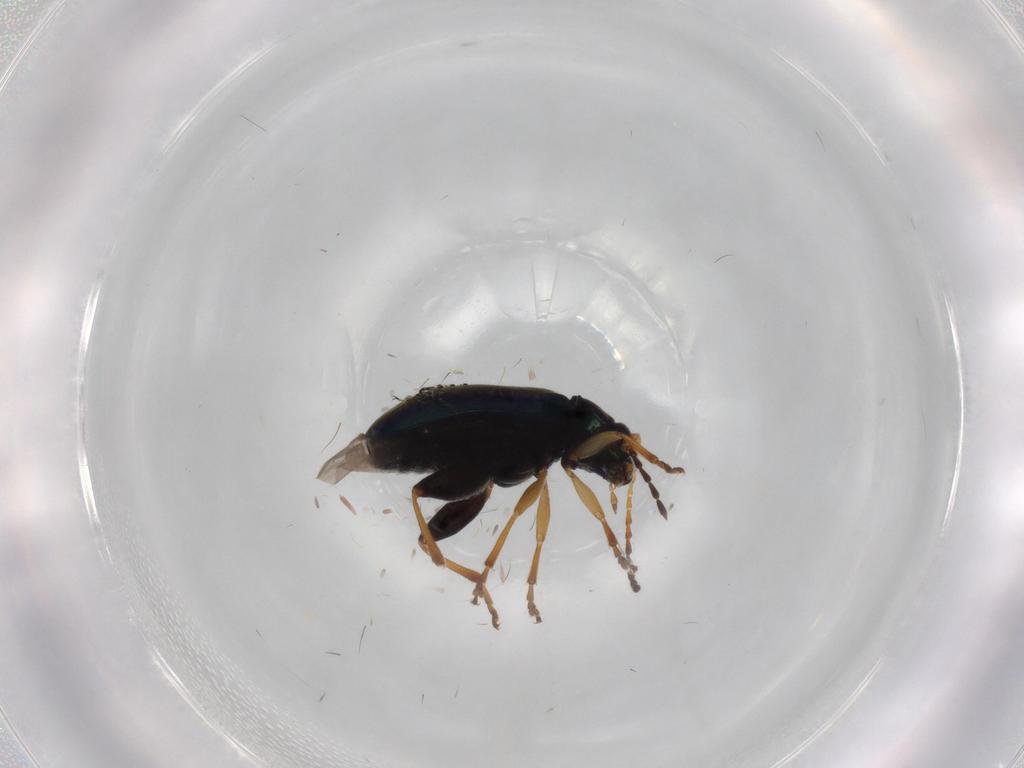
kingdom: Animalia
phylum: Arthropoda
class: Insecta
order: Coleoptera
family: Chrysomelidae
